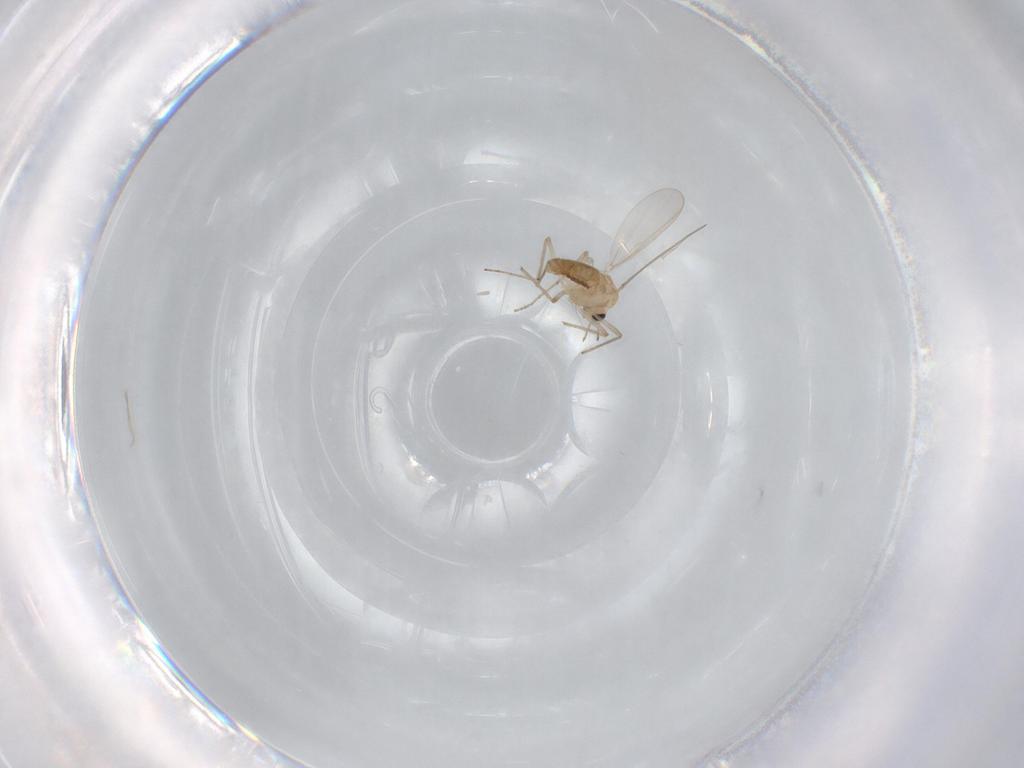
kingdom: Animalia
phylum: Arthropoda
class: Insecta
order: Diptera
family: Chironomidae
